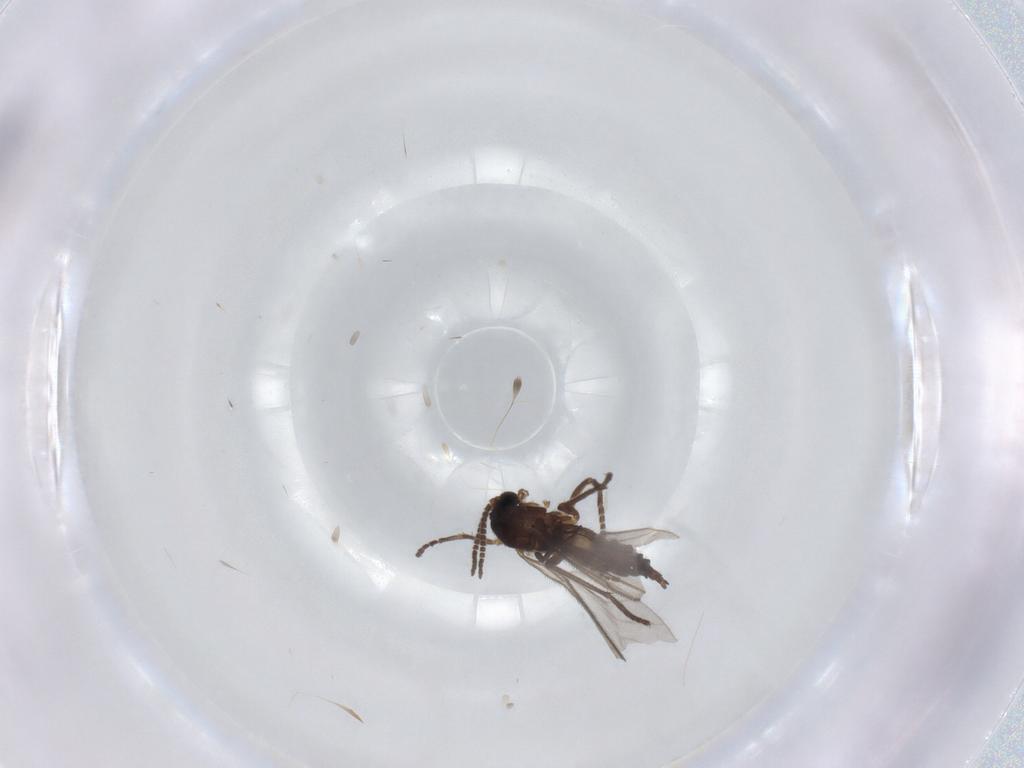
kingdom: Animalia
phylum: Arthropoda
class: Insecta
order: Diptera
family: Sciaridae
